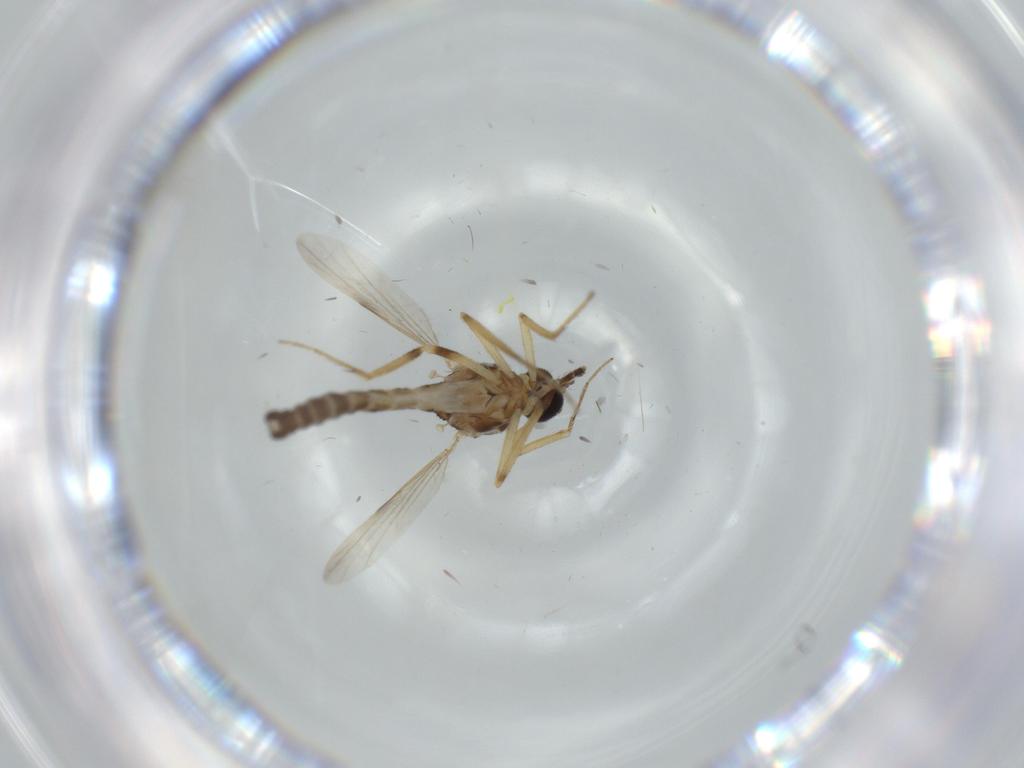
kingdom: Animalia
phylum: Arthropoda
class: Insecta
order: Diptera
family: Ceratopogonidae
